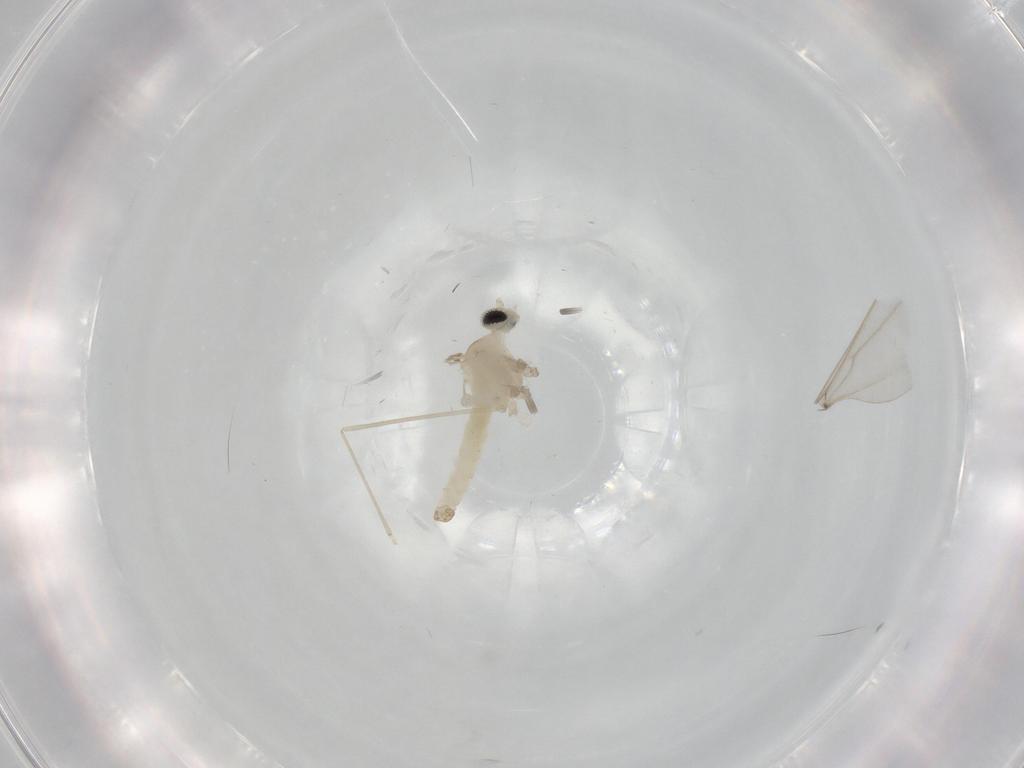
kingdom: Animalia
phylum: Arthropoda
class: Insecta
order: Diptera
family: Cecidomyiidae
